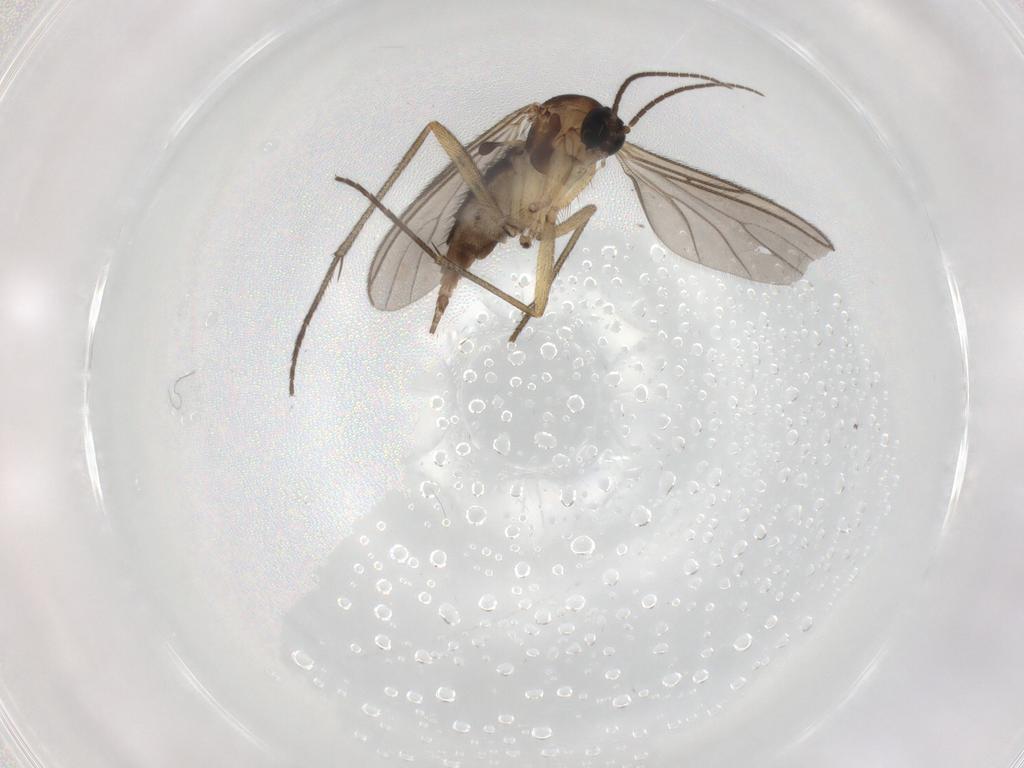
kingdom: Animalia
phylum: Arthropoda
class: Insecta
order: Diptera
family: Sciaridae
